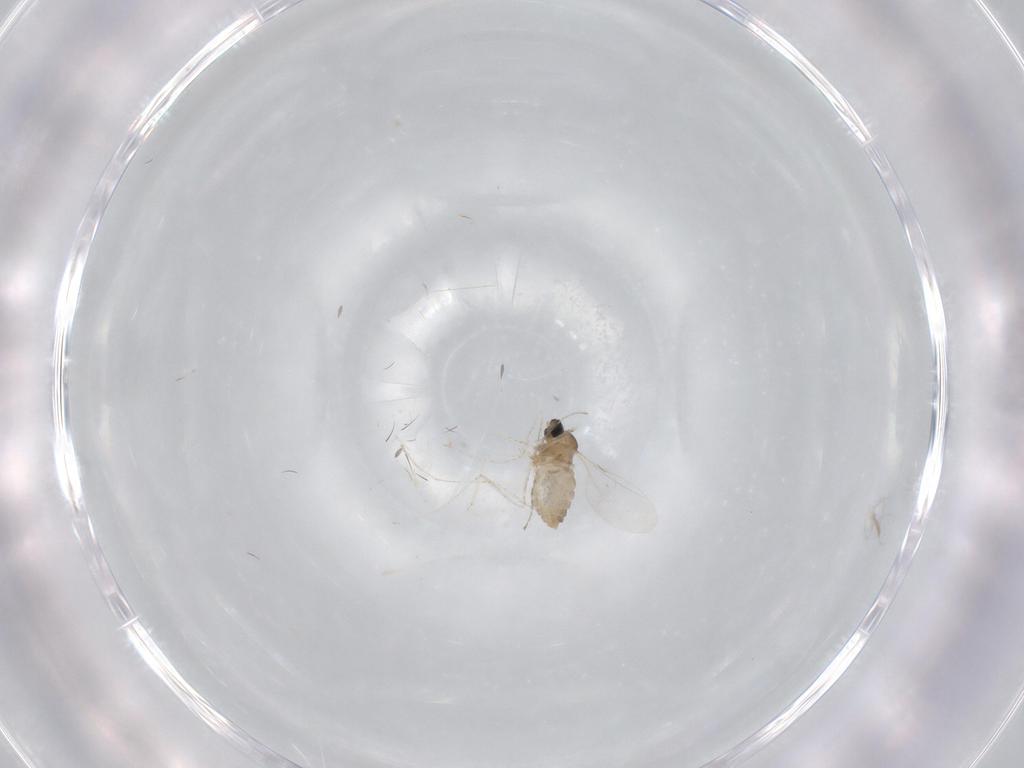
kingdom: Animalia
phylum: Arthropoda
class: Insecta
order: Diptera
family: Cecidomyiidae
